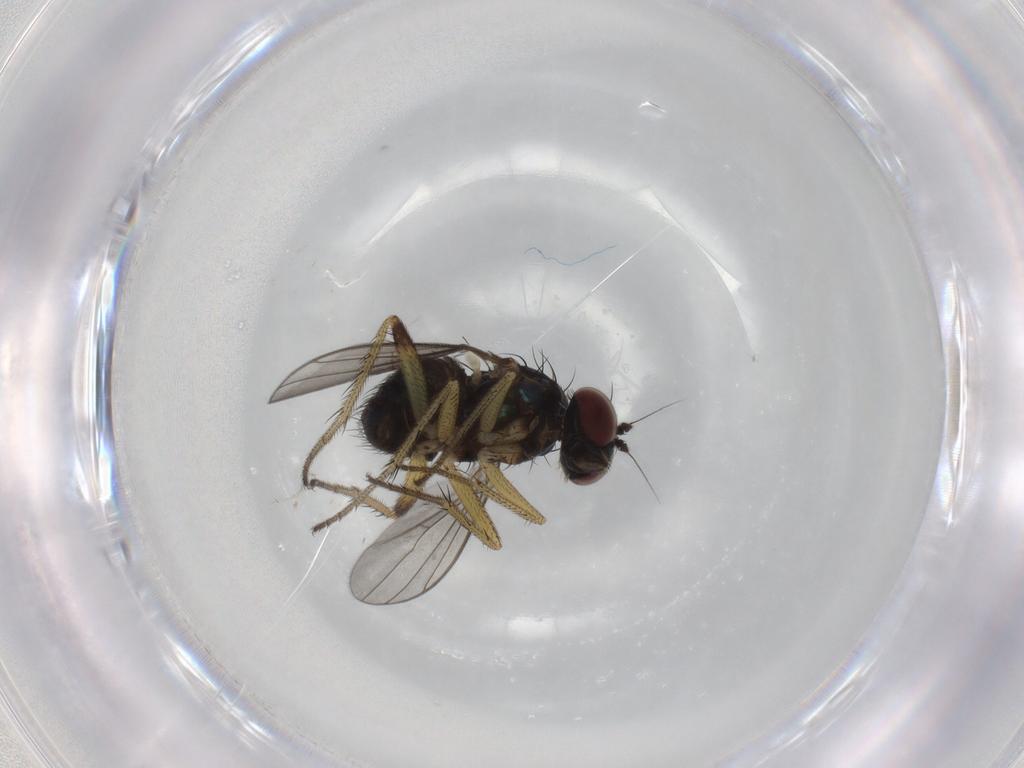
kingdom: Animalia
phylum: Arthropoda
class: Insecta
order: Diptera
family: Dolichopodidae
